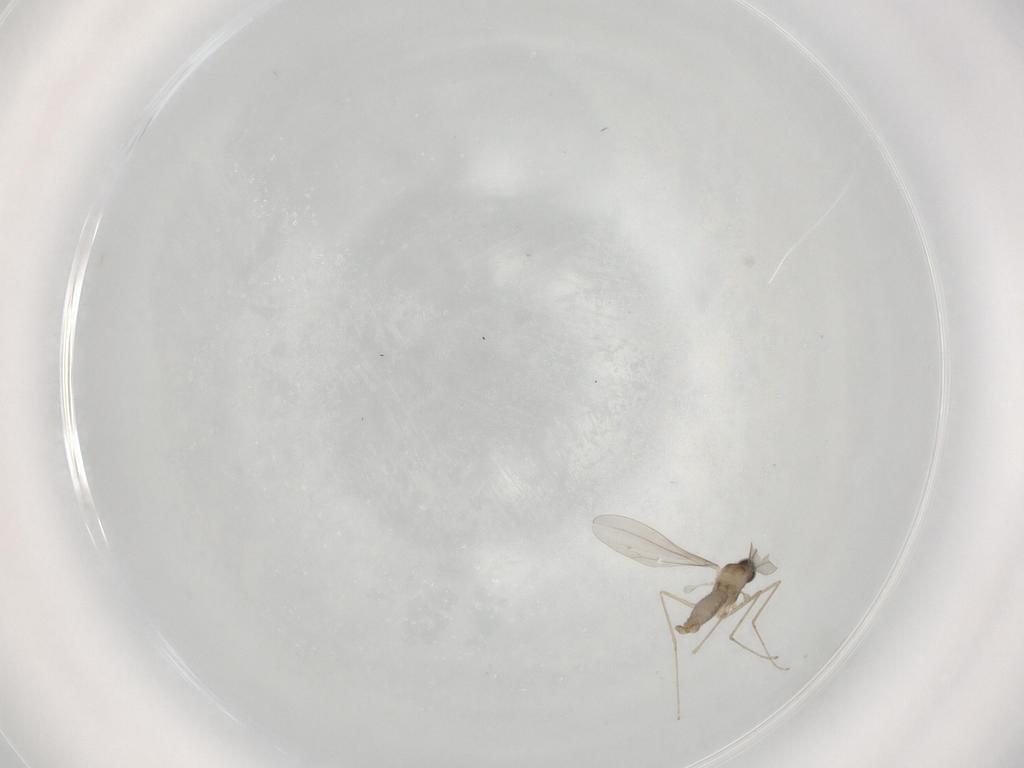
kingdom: Animalia
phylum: Arthropoda
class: Insecta
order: Diptera
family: Cecidomyiidae
